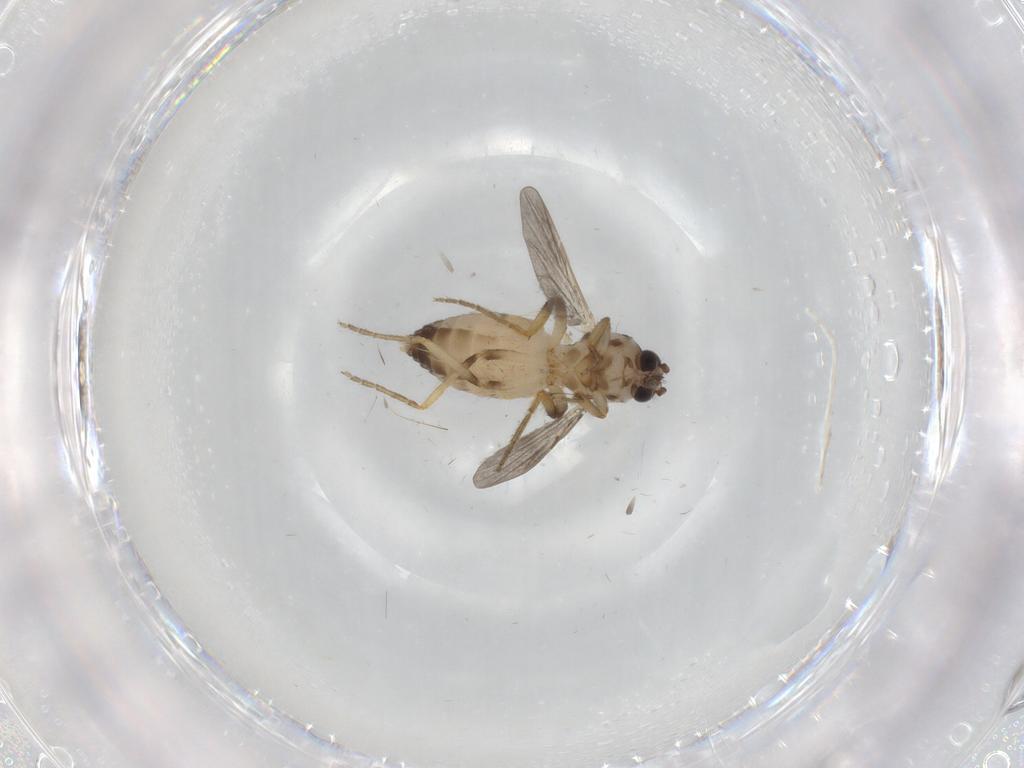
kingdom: Animalia
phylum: Arthropoda
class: Insecta
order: Diptera
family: Ceratopogonidae
